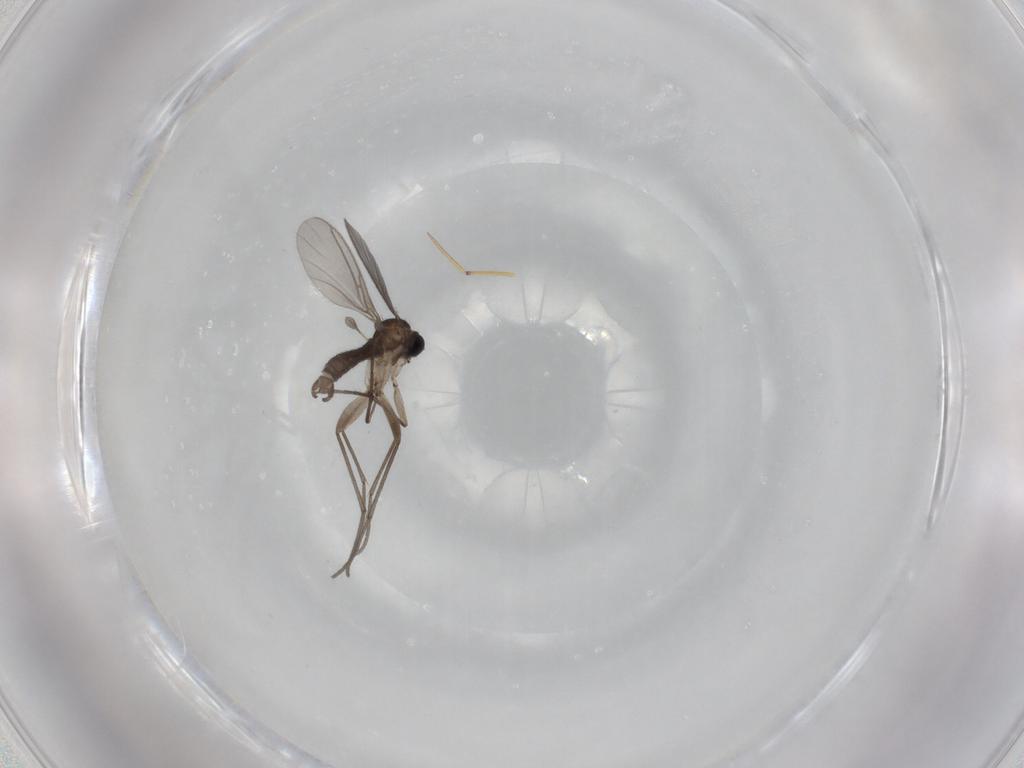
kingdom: Animalia
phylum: Arthropoda
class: Insecta
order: Diptera
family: Sciaridae
